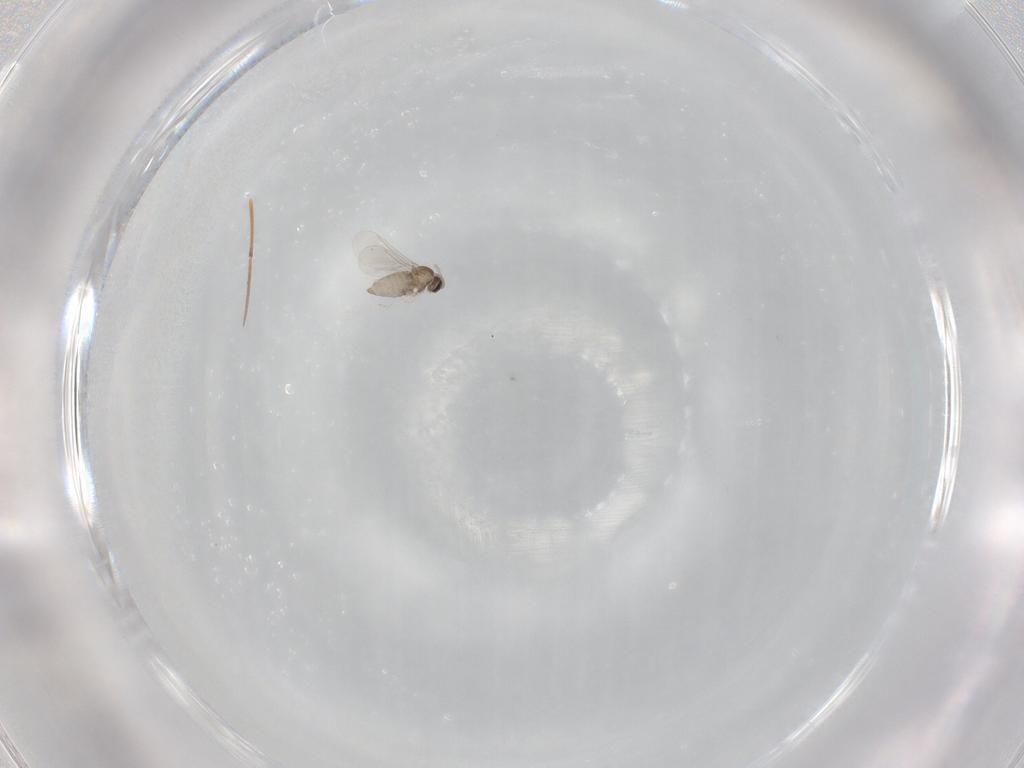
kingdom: Animalia
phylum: Arthropoda
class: Insecta
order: Diptera
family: Cecidomyiidae
